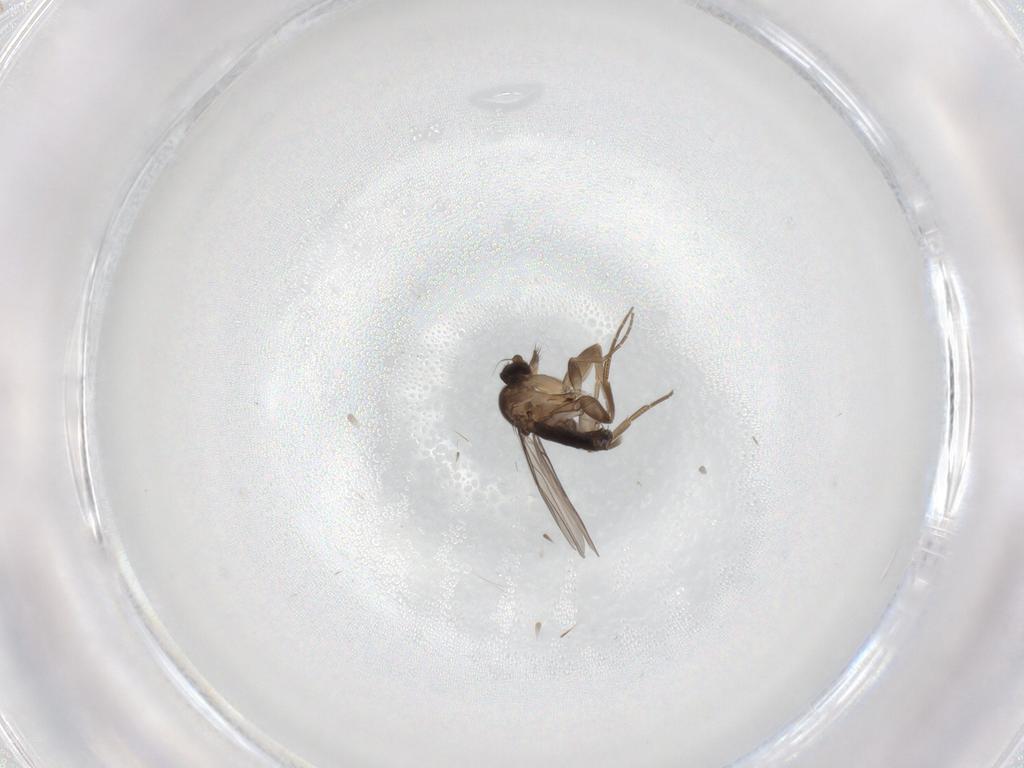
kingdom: Animalia
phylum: Arthropoda
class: Insecta
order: Diptera
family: Phoridae
